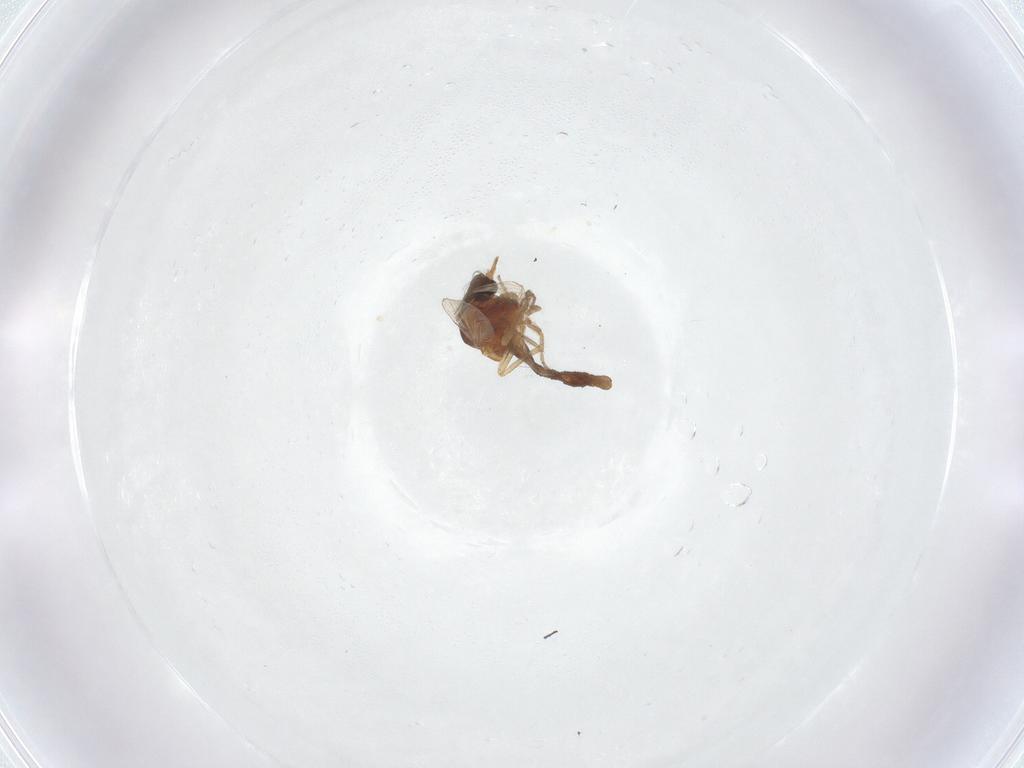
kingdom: Animalia
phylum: Arthropoda
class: Insecta
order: Diptera
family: Ceratopogonidae
